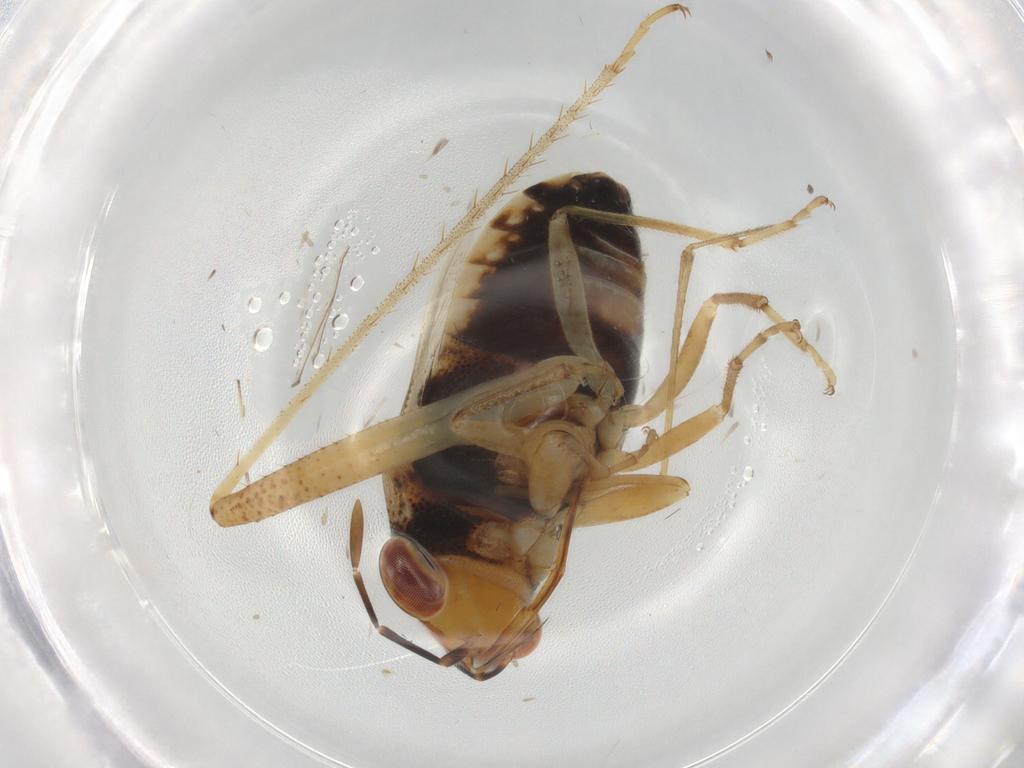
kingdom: Animalia
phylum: Arthropoda
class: Insecta
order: Hemiptera
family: Miridae
